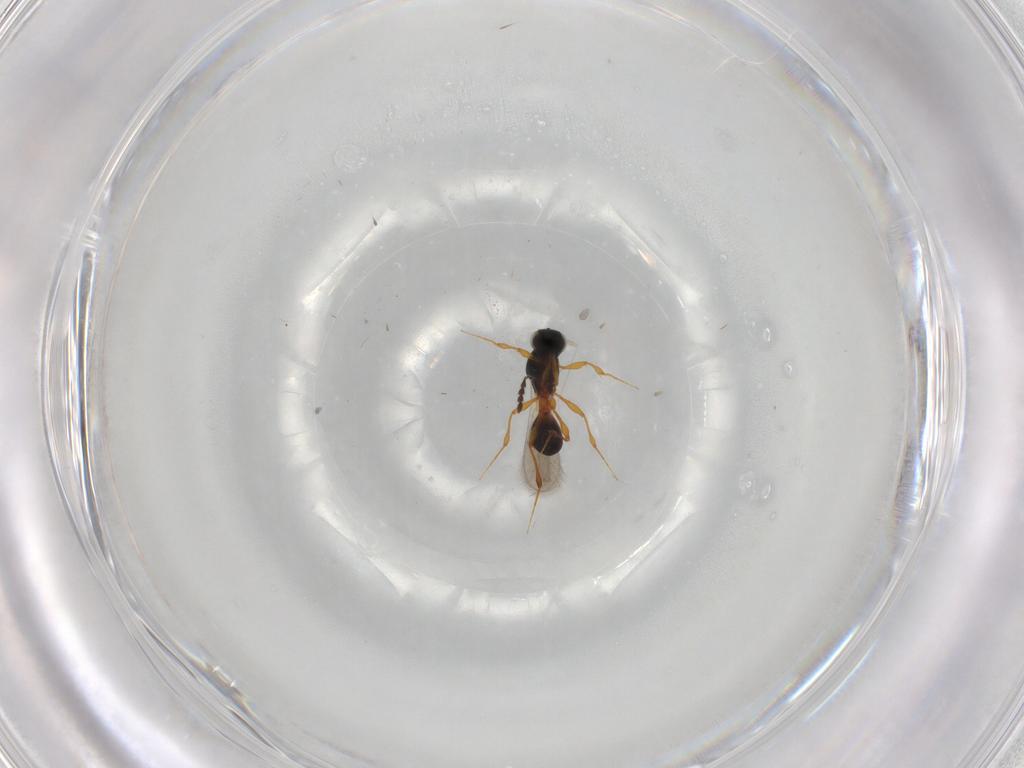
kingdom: Animalia
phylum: Arthropoda
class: Insecta
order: Hymenoptera
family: Platygastridae
